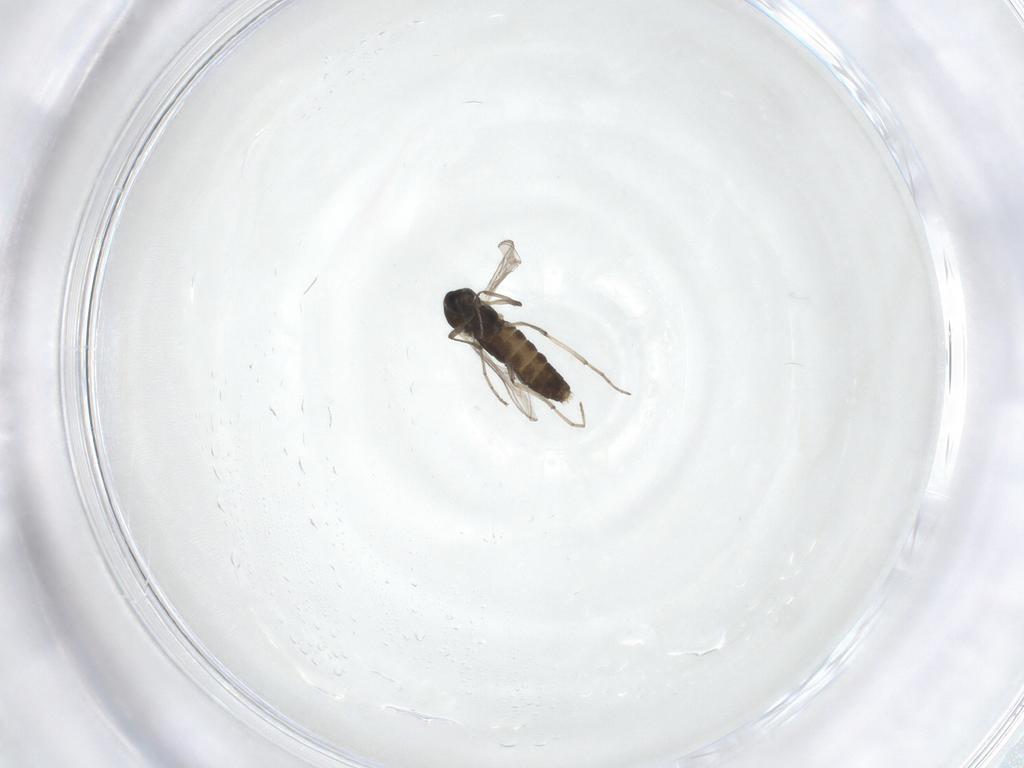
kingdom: Animalia
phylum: Arthropoda
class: Insecta
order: Diptera
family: Chironomidae
